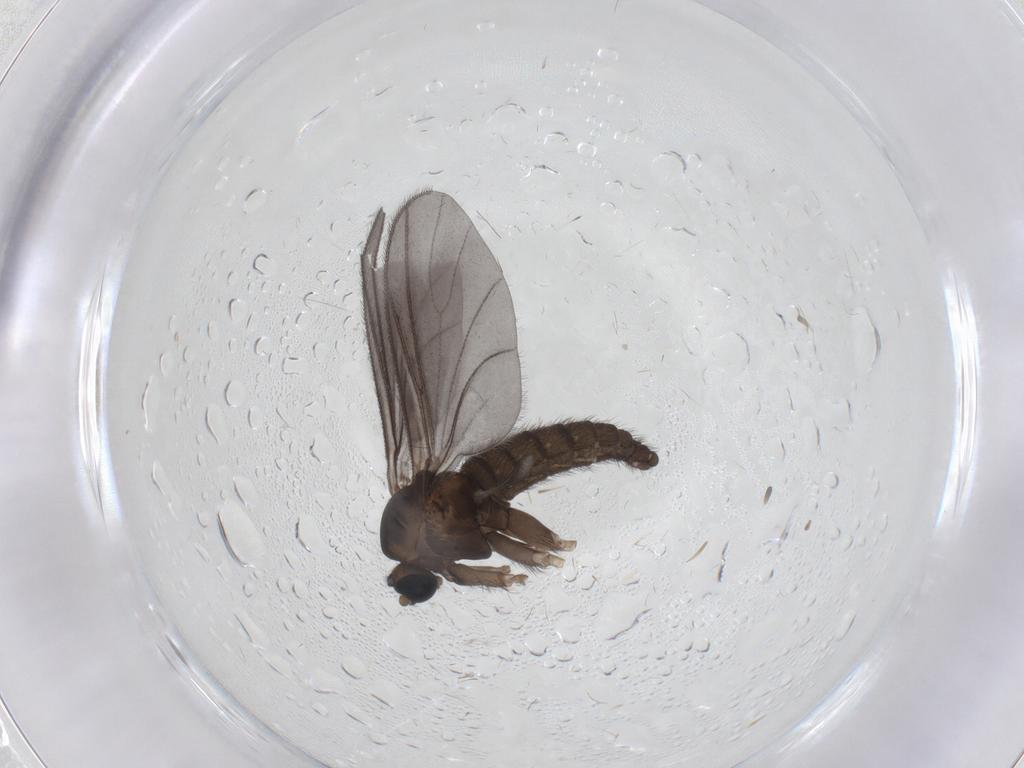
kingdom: Animalia
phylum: Arthropoda
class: Insecta
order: Diptera
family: Sciaridae
